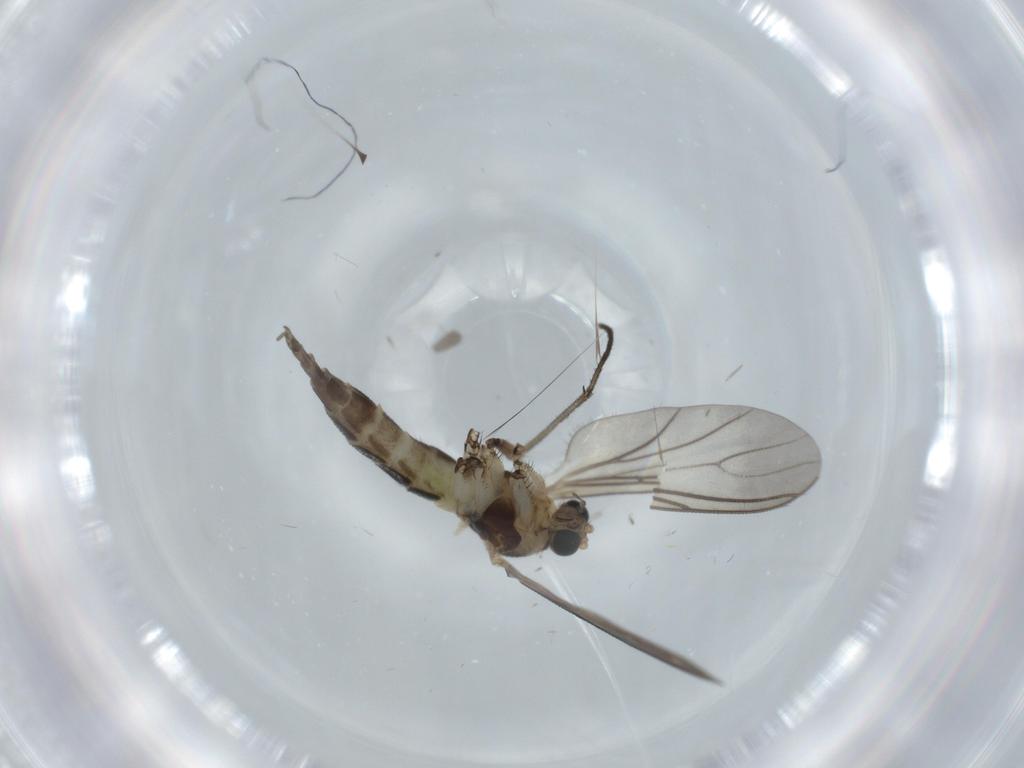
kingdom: Animalia
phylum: Arthropoda
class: Insecta
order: Diptera
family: Sciaridae
